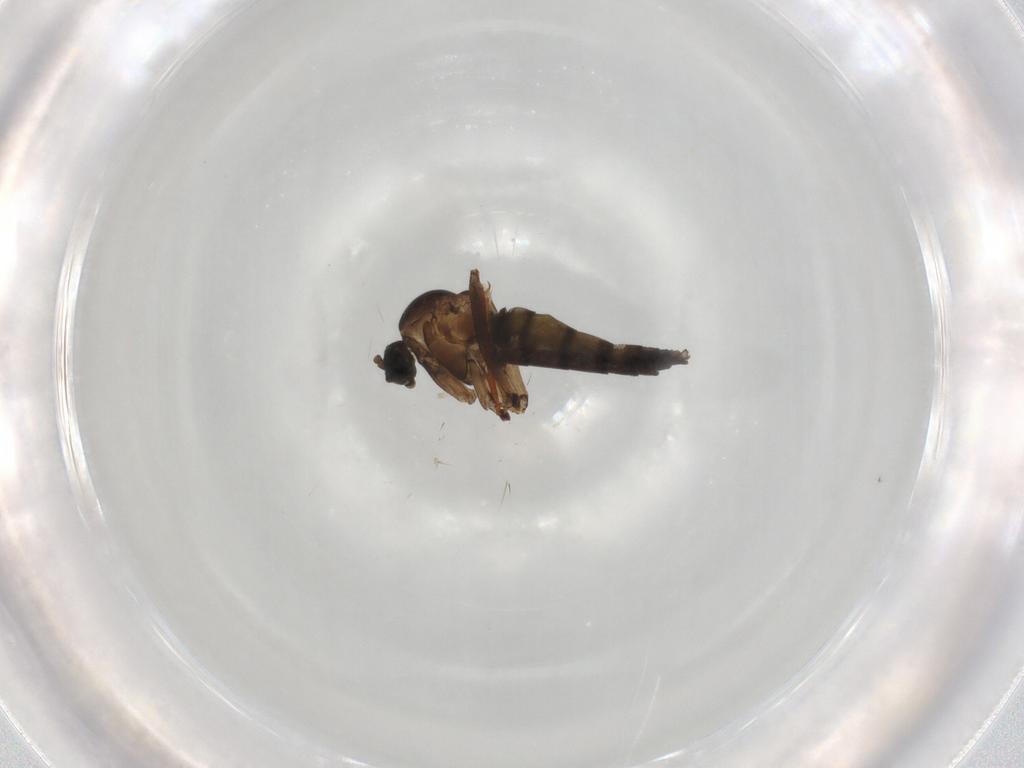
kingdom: Animalia
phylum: Arthropoda
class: Insecta
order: Diptera
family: Sciaridae
